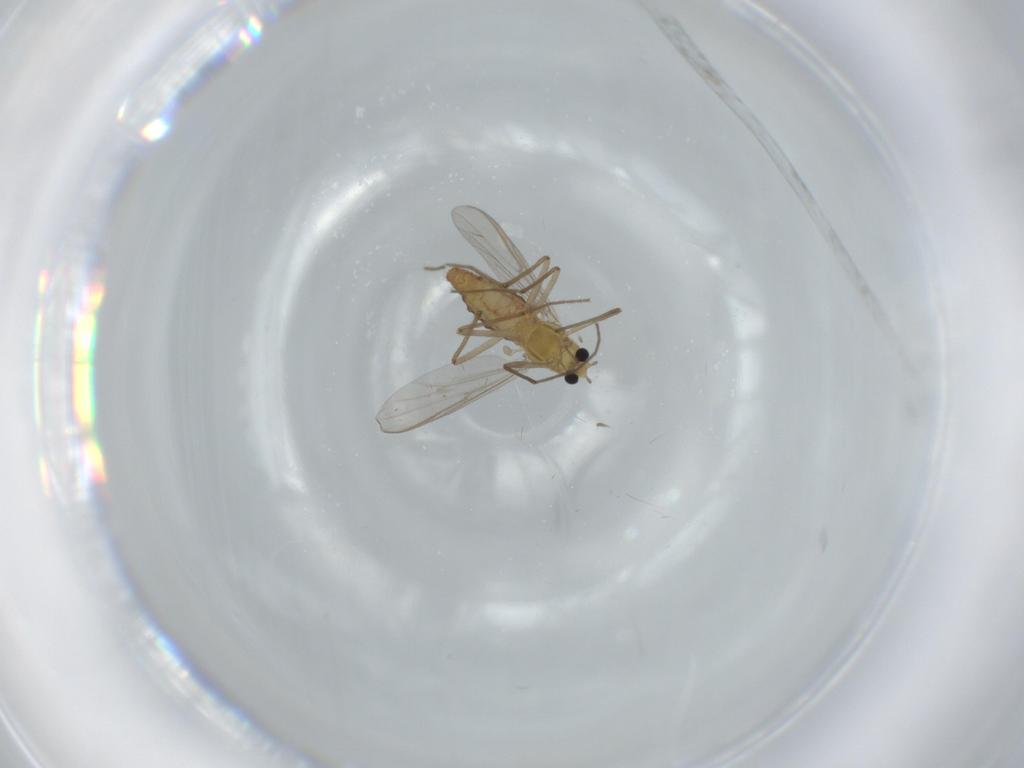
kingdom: Animalia
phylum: Arthropoda
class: Insecta
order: Diptera
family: Chironomidae
